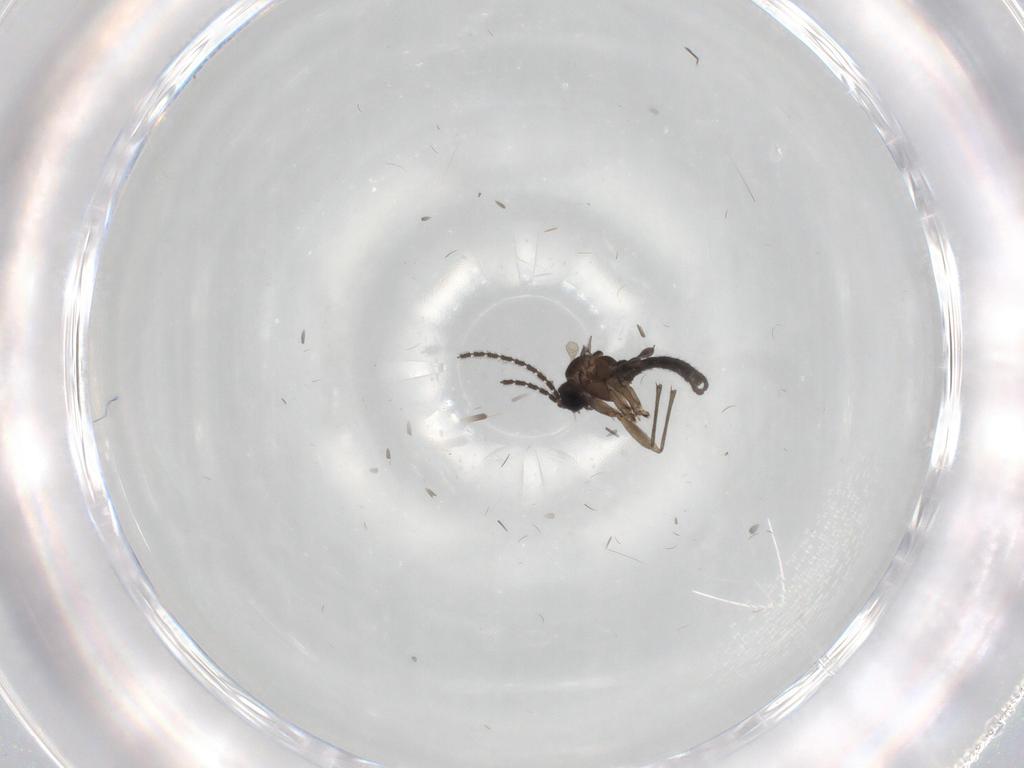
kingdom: Animalia
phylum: Arthropoda
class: Insecta
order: Diptera
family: Sciaridae
